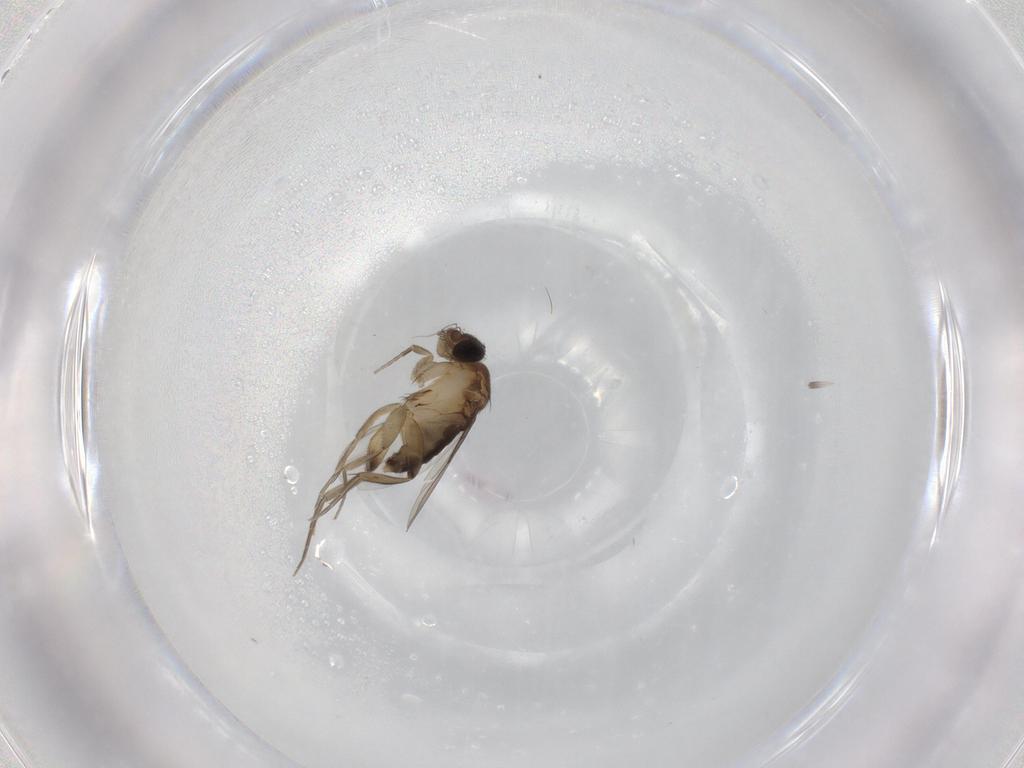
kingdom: Animalia
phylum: Arthropoda
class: Insecta
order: Diptera
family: Phoridae
